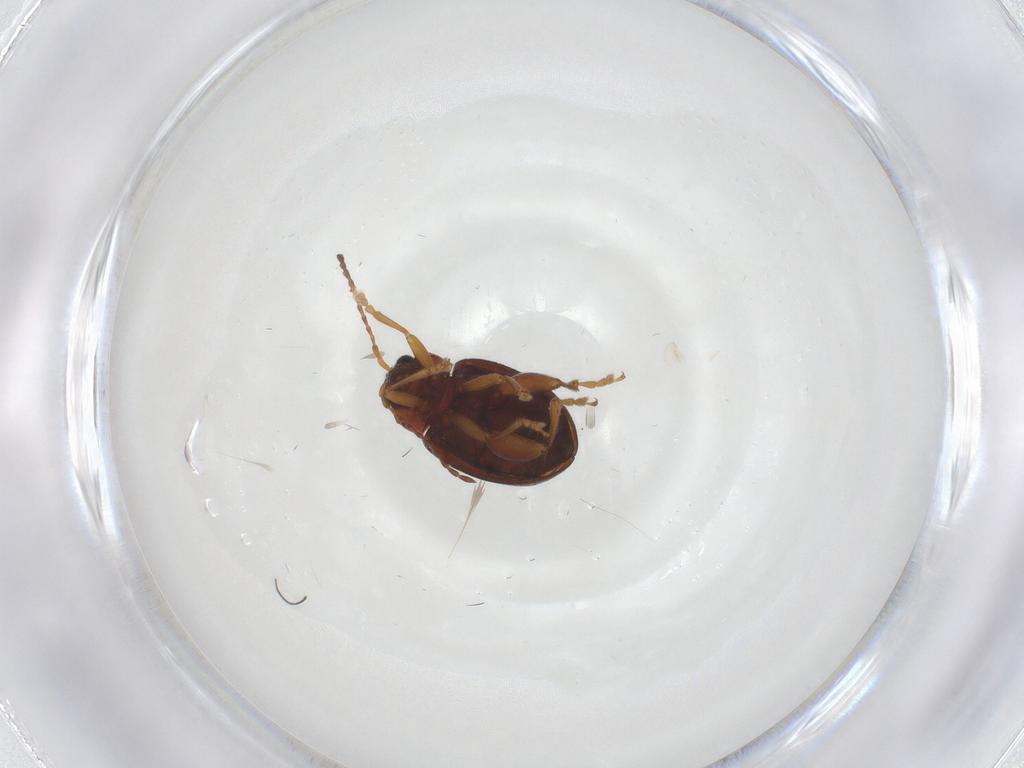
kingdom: Animalia
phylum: Arthropoda
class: Insecta
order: Coleoptera
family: Chrysomelidae
